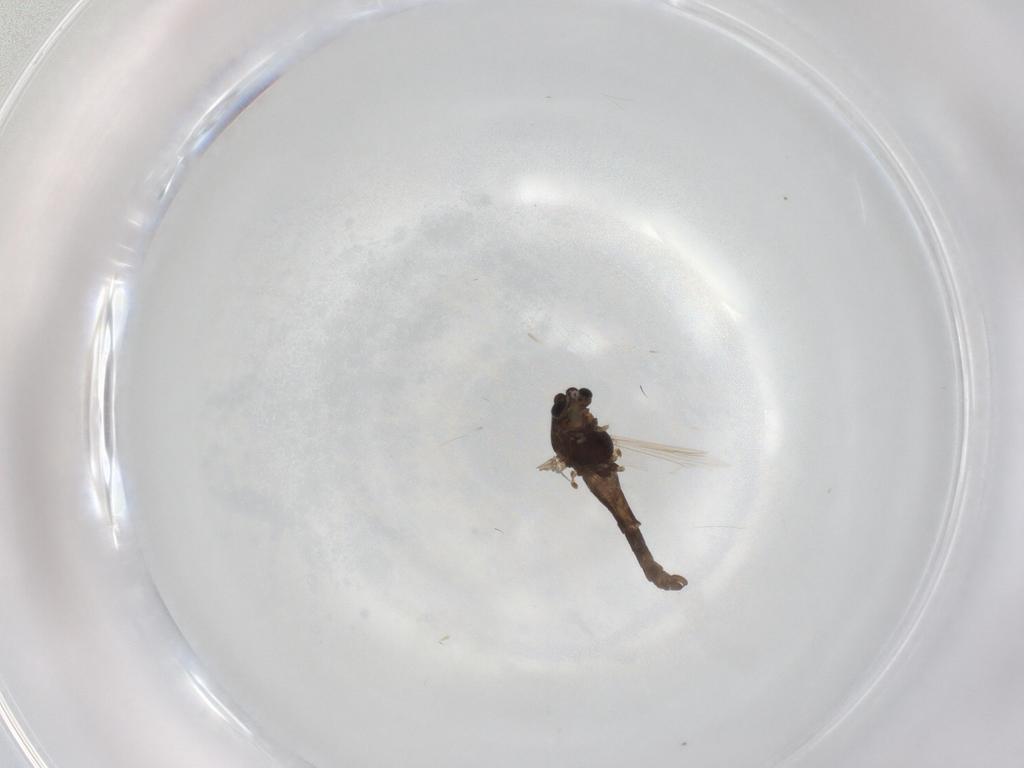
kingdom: Animalia
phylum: Arthropoda
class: Insecta
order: Diptera
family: Chironomidae
